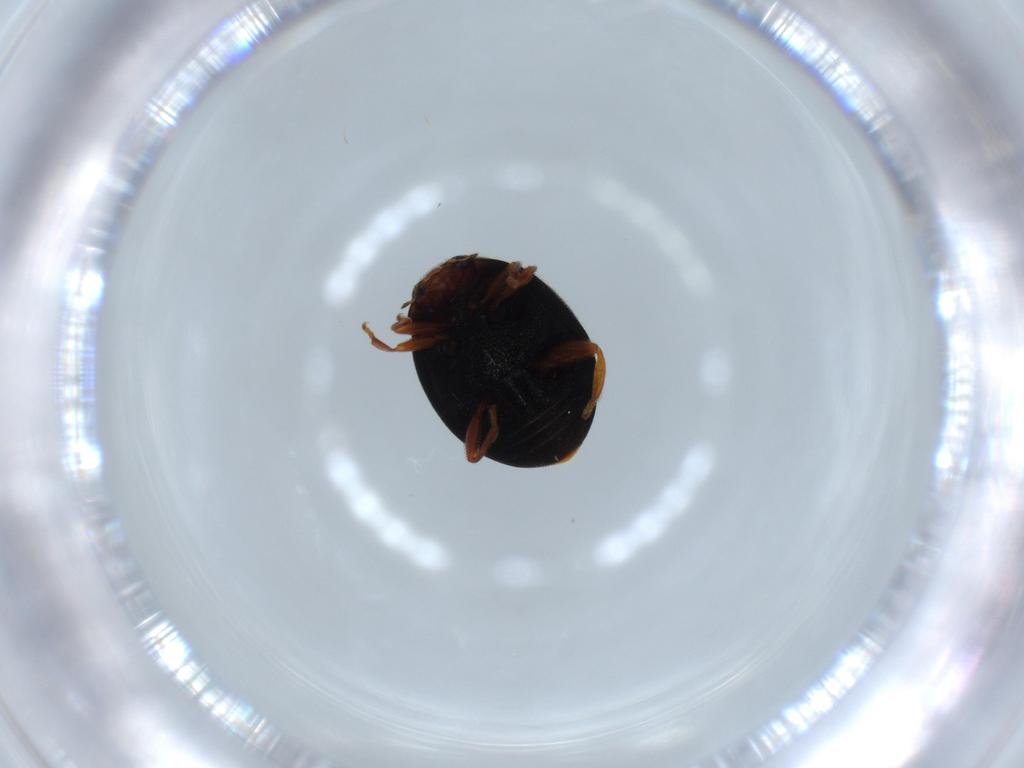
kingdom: Animalia
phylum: Arthropoda
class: Insecta
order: Coleoptera
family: Coccinellidae
